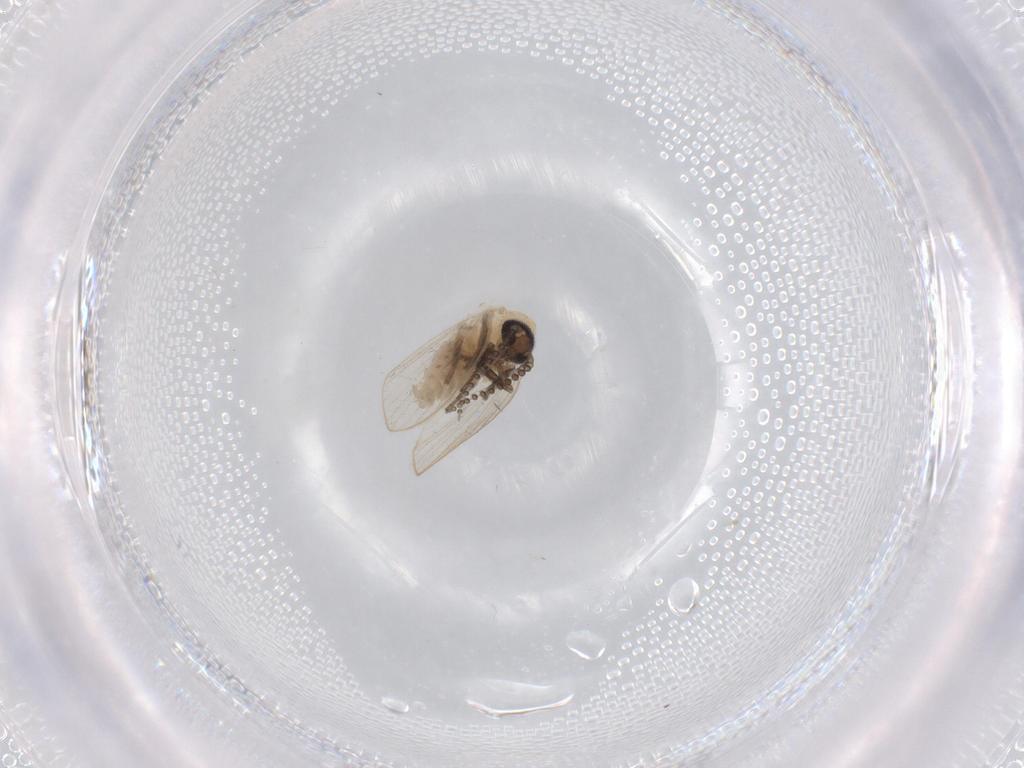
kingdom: Animalia
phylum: Arthropoda
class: Insecta
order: Diptera
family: Psychodidae
